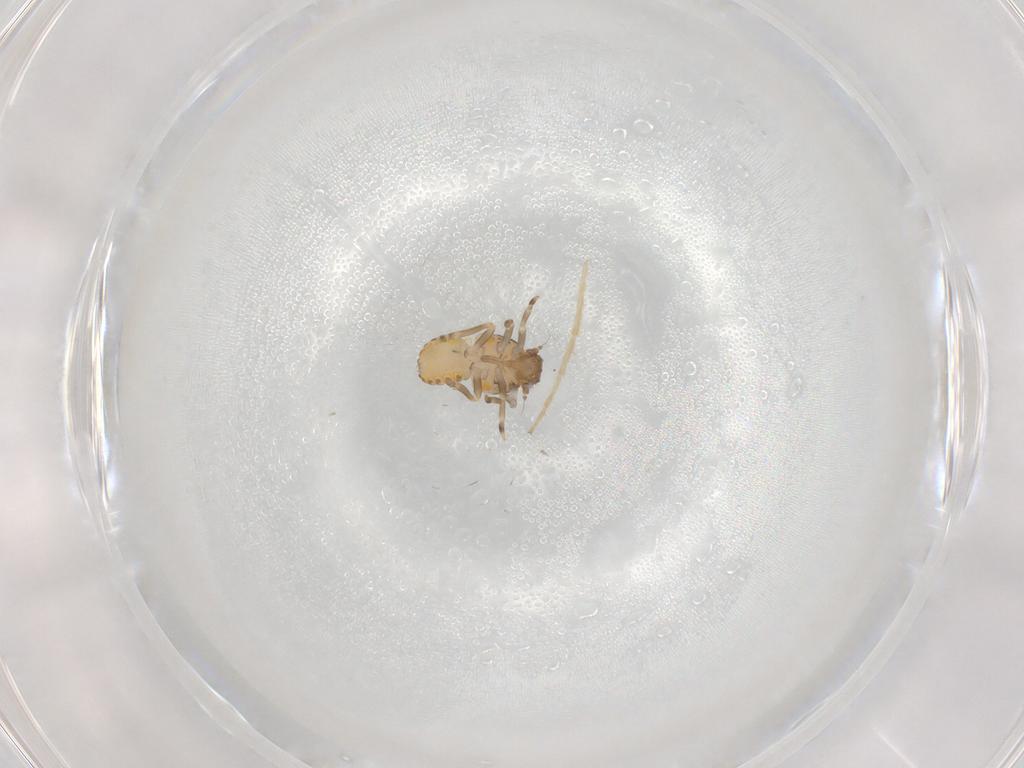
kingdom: Animalia
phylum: Arthropoda
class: Insecta
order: Hemiptera
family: Flatidae
